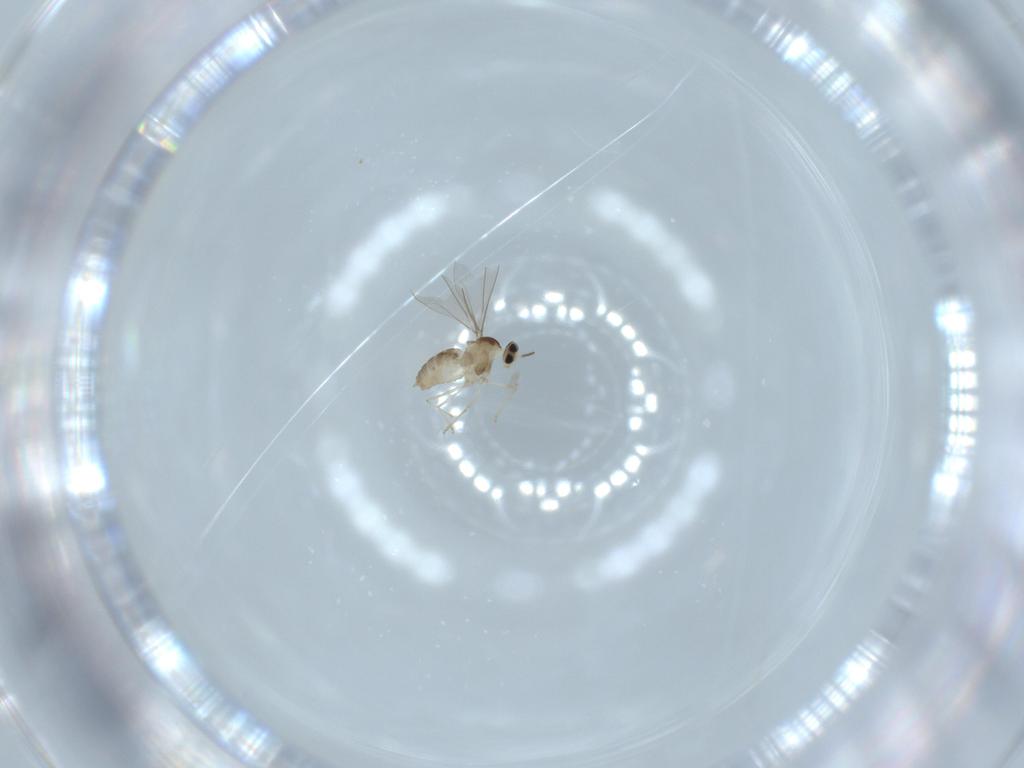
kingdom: Animalia
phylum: Arthropoda
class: Insecta
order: Diptera
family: Cecidomyiidae
